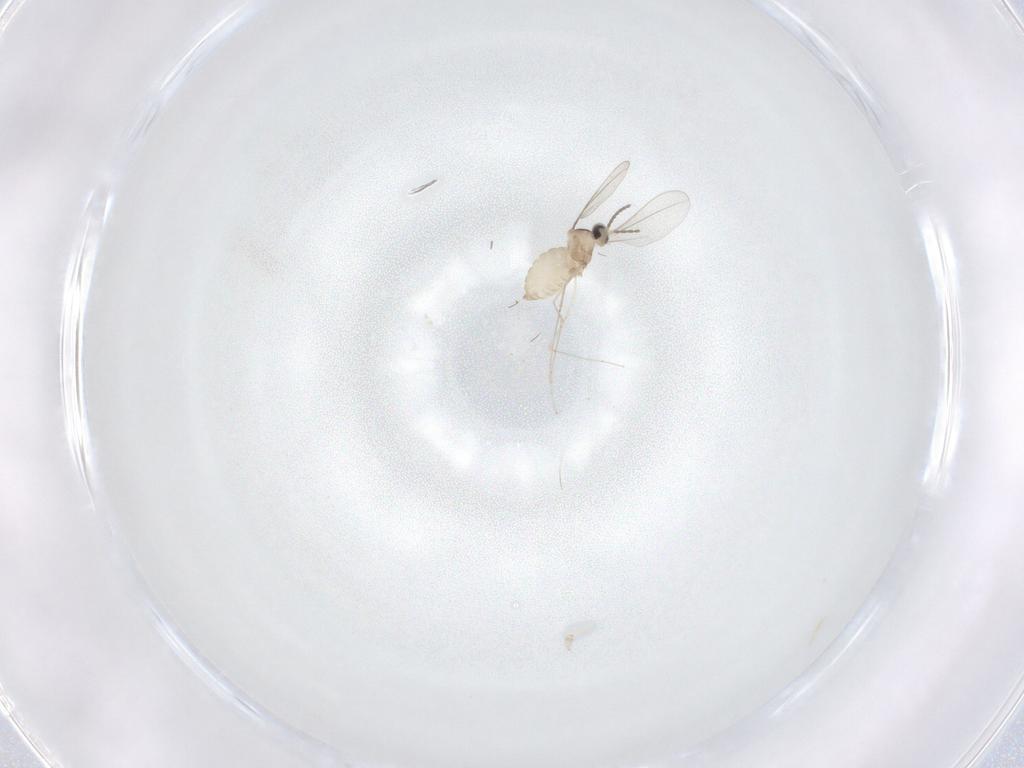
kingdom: Animalia
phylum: Arthropoda
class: Insecta
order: Diptera
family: Cecidomyiidae
